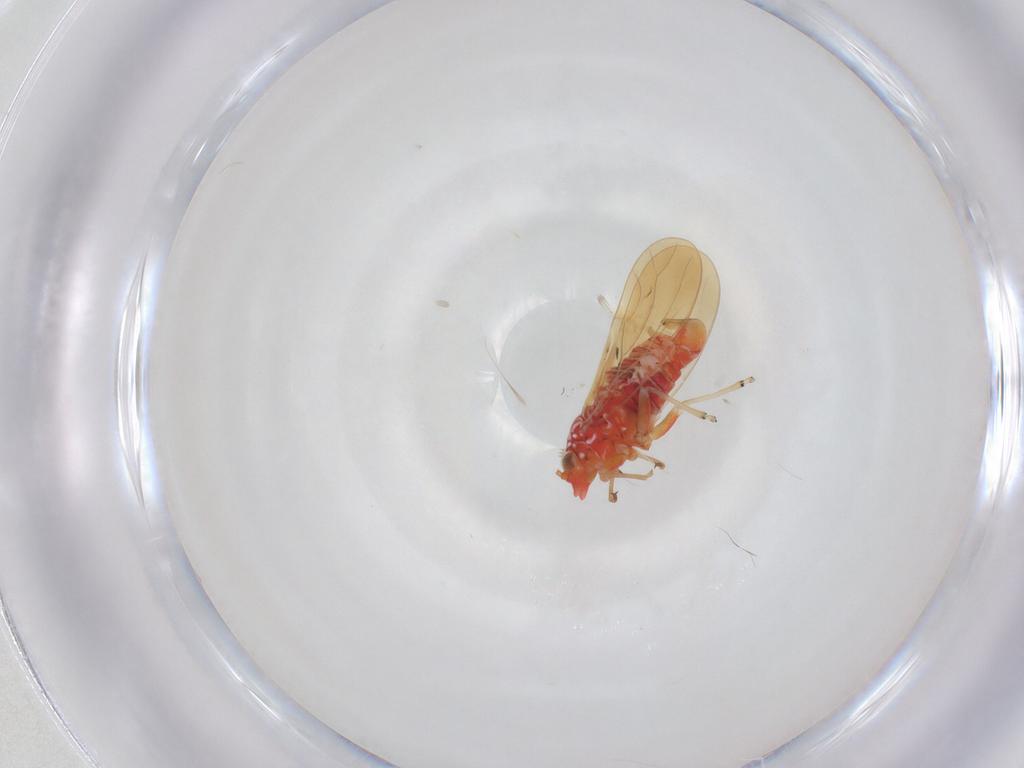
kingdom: Animalia
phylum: Arthropoda
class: Insecta
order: Hemiptera
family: Psyllidae
